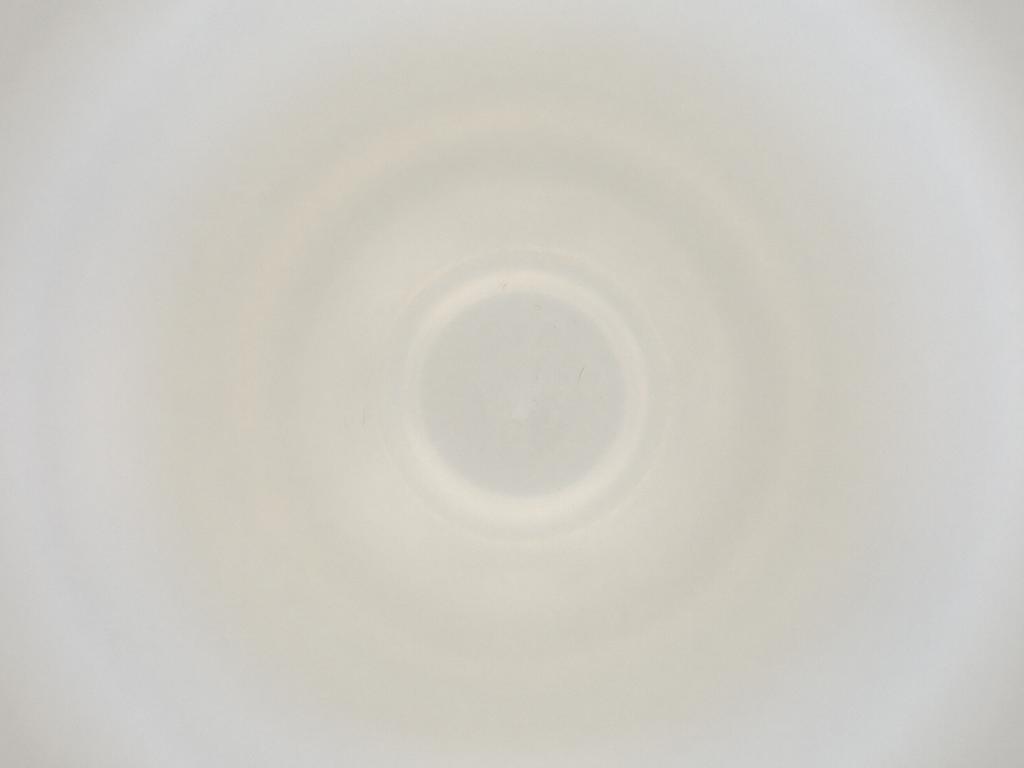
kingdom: Animalia
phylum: Arthropoda
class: Insecta
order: Diptera
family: Cecidomyiidae
